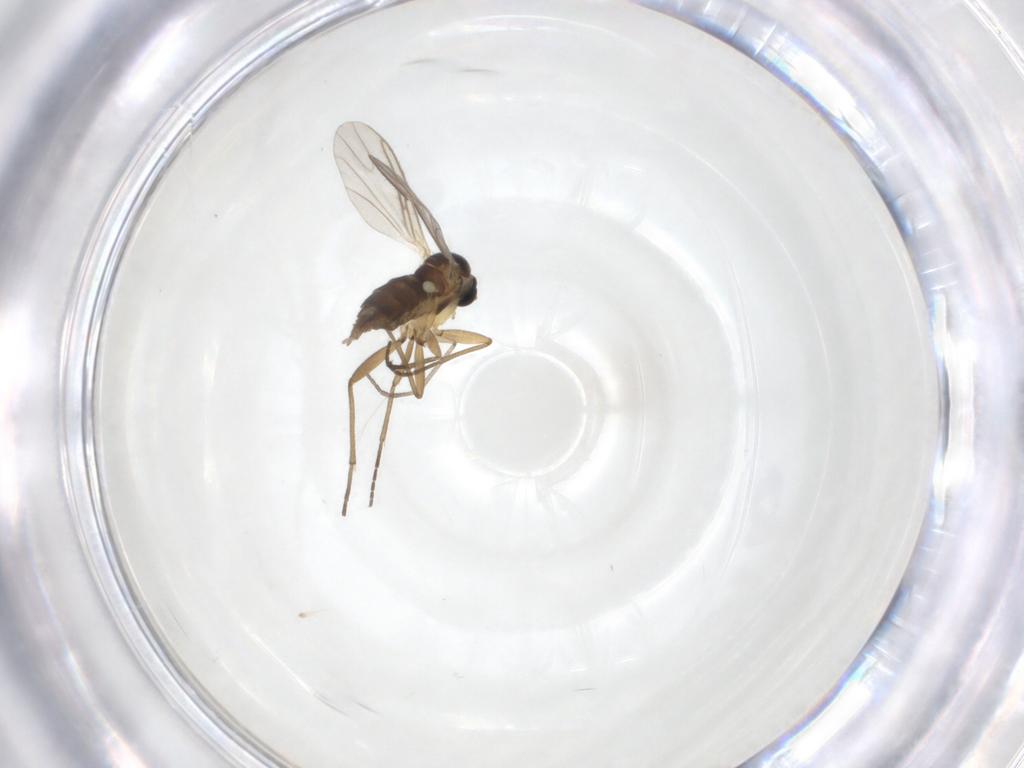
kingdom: Animalia
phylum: Arthropoda
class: Insecta
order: Diptera
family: Sciaridae
